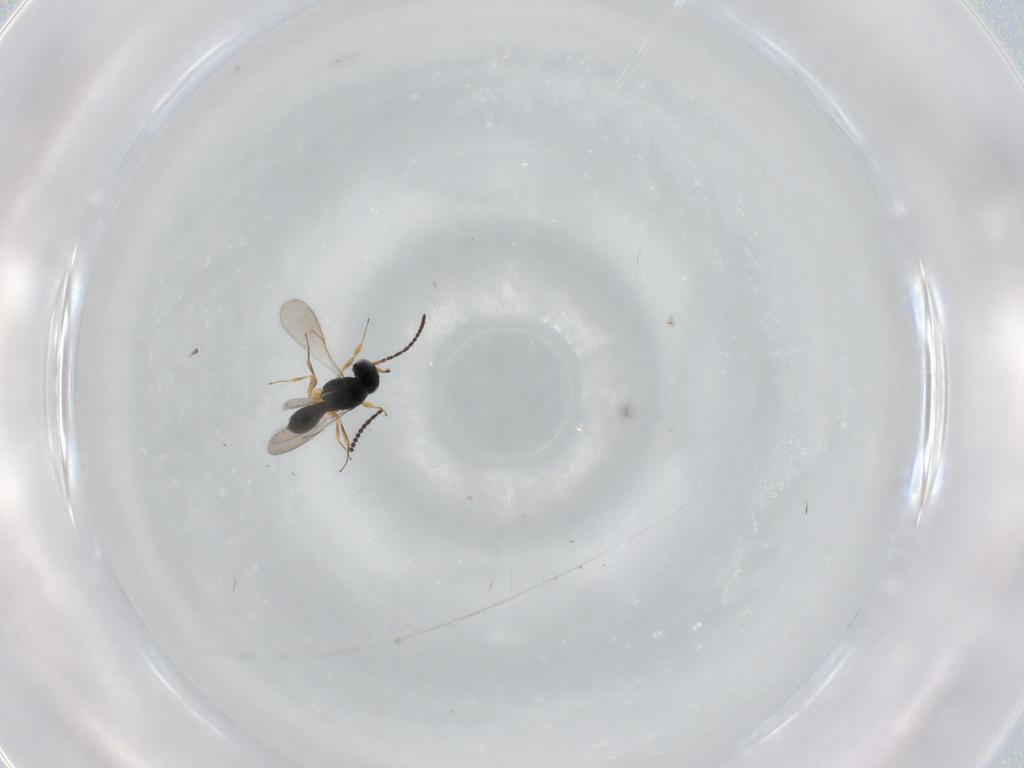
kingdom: Animalia
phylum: Arthropoda
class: Insecta
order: Hymenoptera
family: Scelionidae
